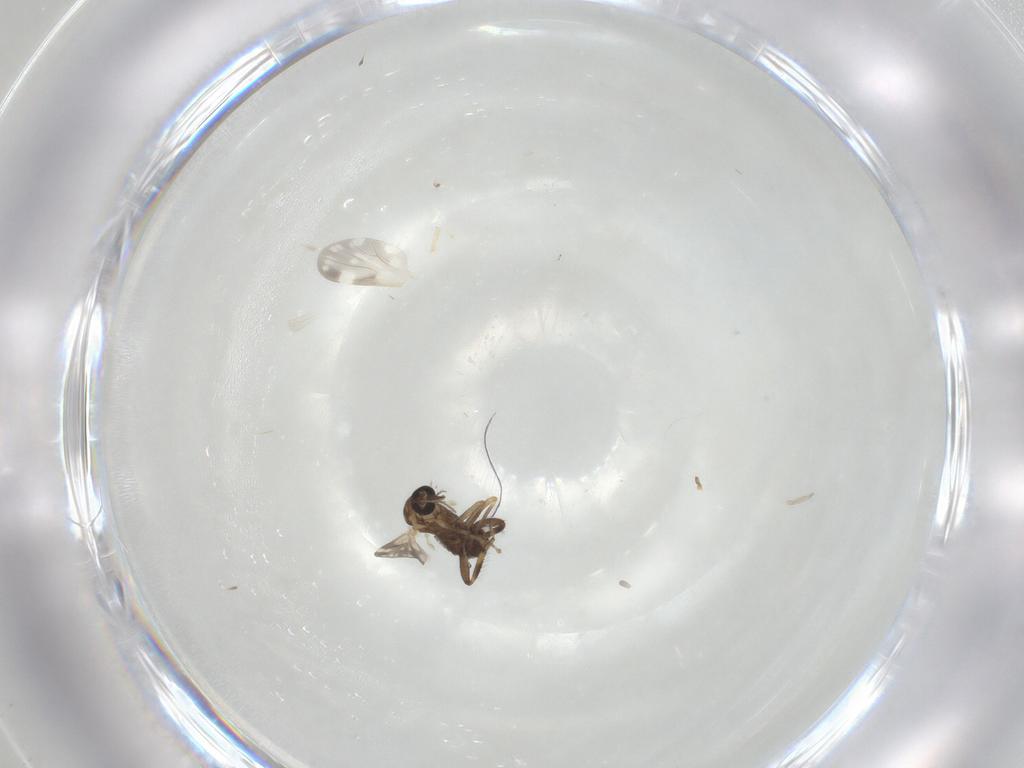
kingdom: Animalia
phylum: Arthropoda
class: Insecta
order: Diptera
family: Ceratopogonidae
